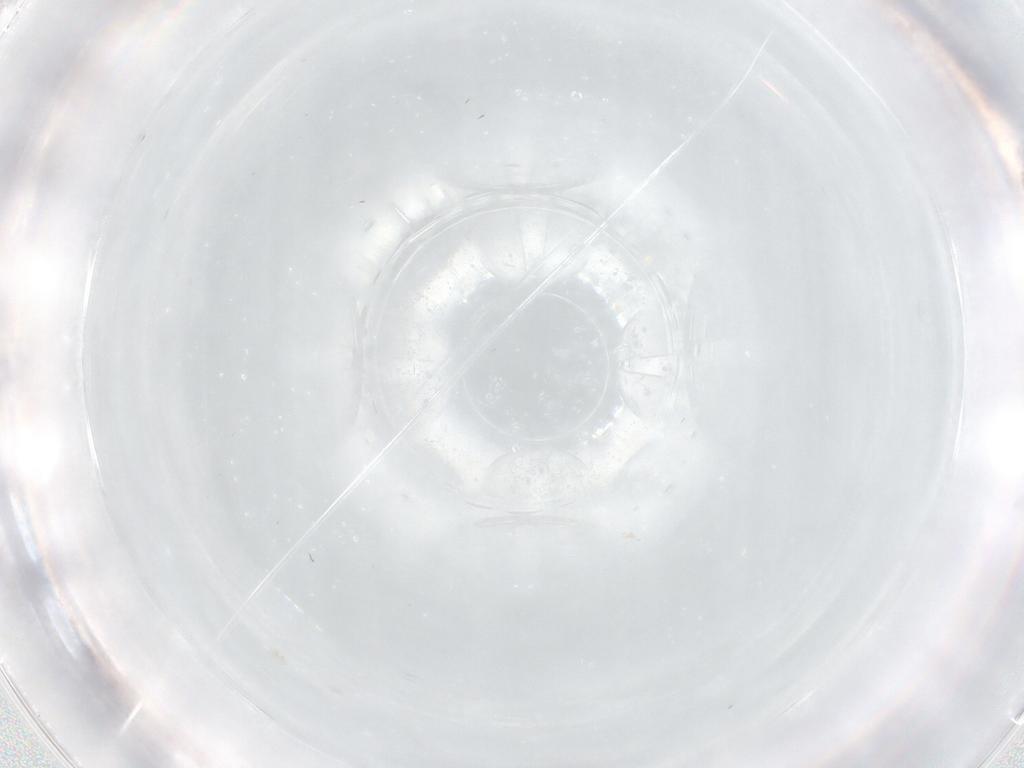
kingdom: Animalia
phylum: Arthropoda
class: Insecta
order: Diptera
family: Cecidomyiidae
